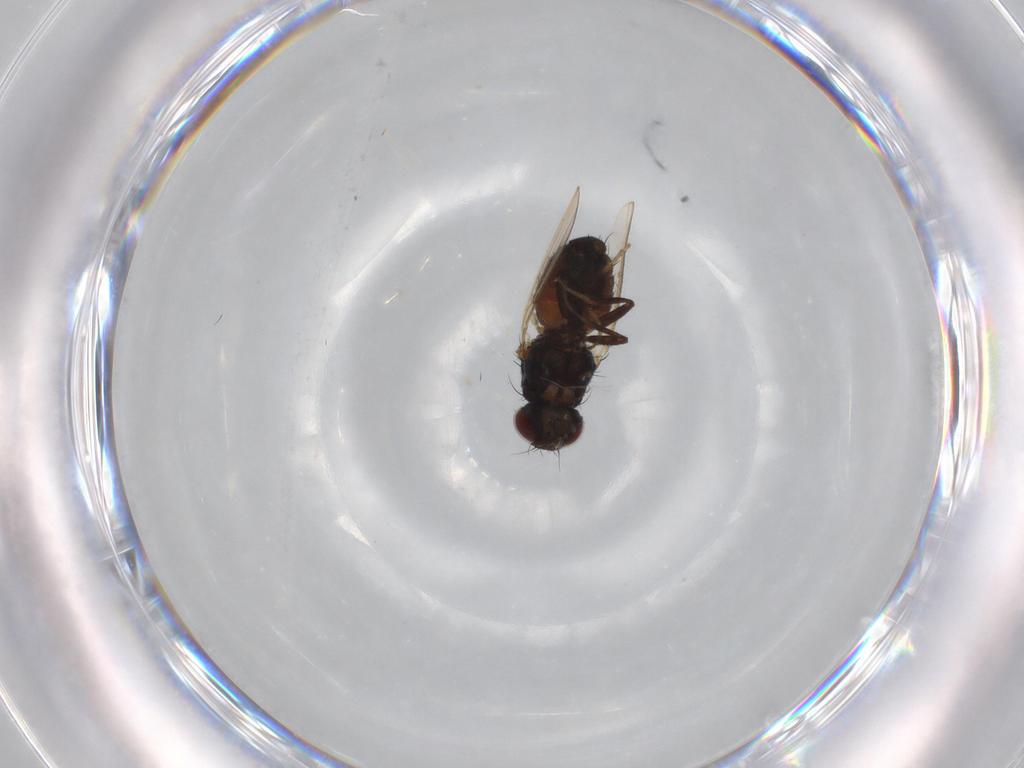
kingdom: Animalia
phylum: Arthropoda
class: Insecta
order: Diptera
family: Carnidae
